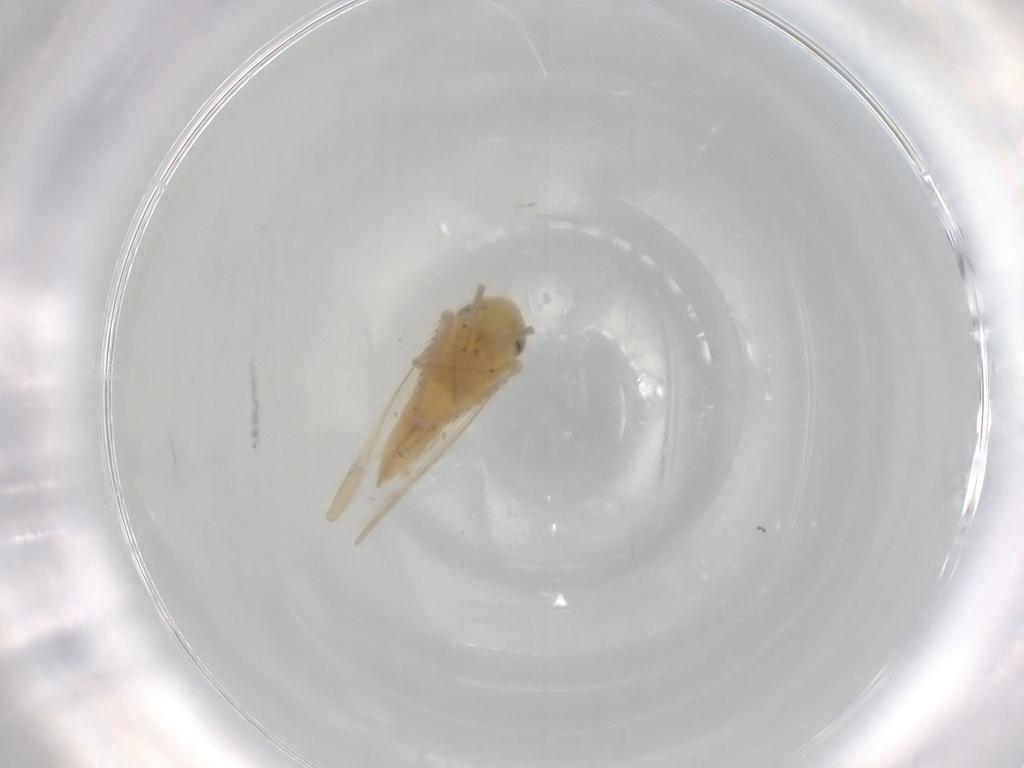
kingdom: Animalia
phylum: Arthropoda
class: Insecta
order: Hemiptera
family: Cicadellidae
